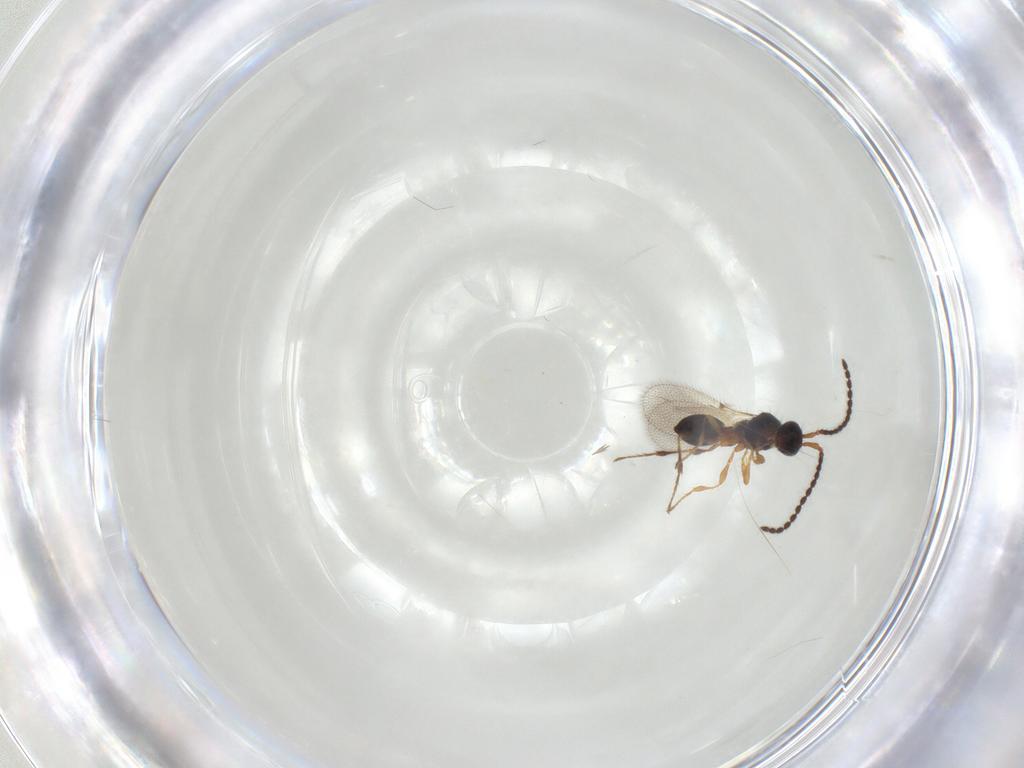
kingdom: Animalia
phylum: Arthropoda
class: Insecta
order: Hymenoptera
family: Diapriidae
